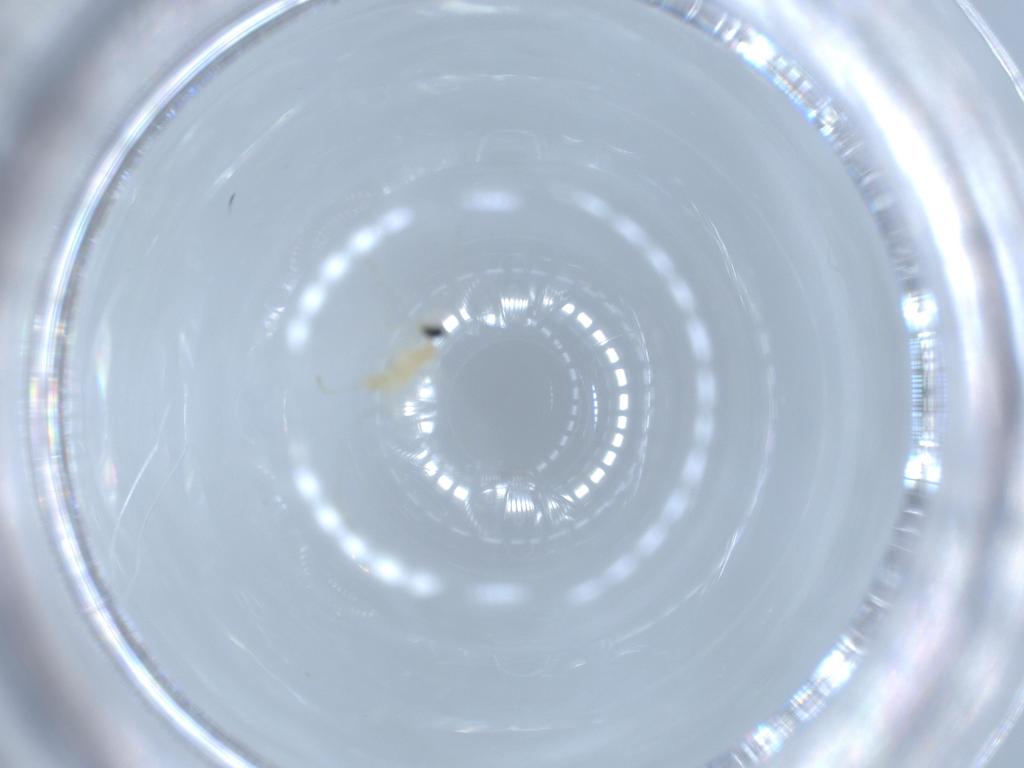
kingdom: Animalia
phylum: Arthropoda
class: Insecta
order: Diptera
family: Cecidomyiidae
